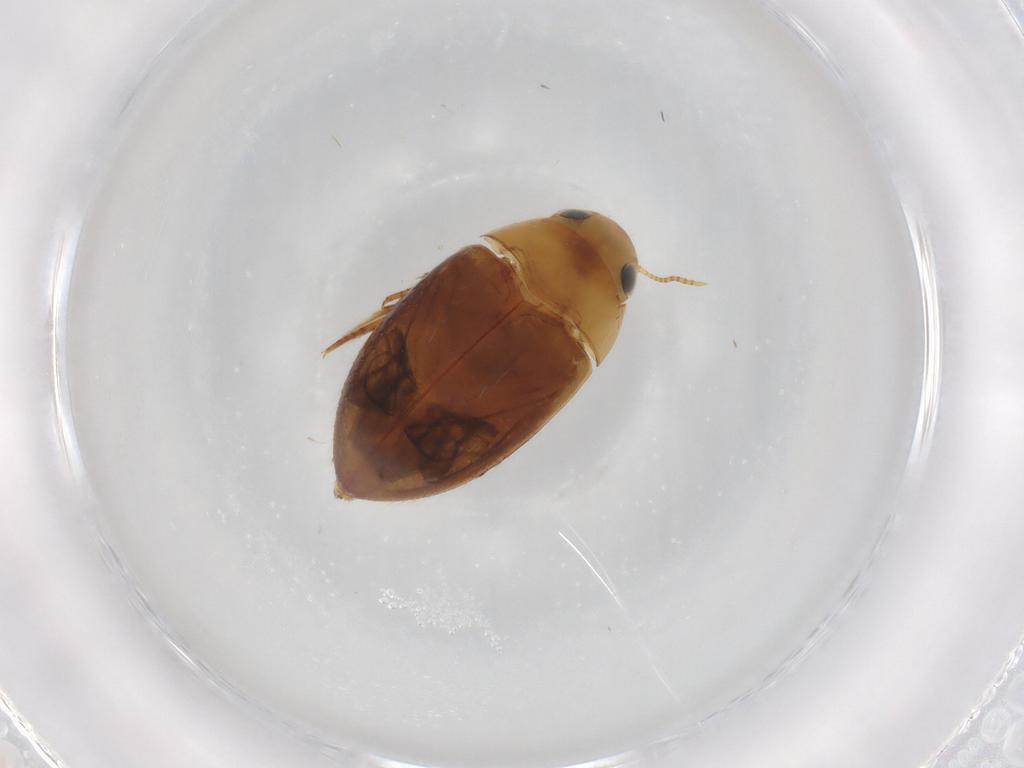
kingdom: Animalia
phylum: Arthropoda
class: Insecta
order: Coleoptera
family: Noteridae
